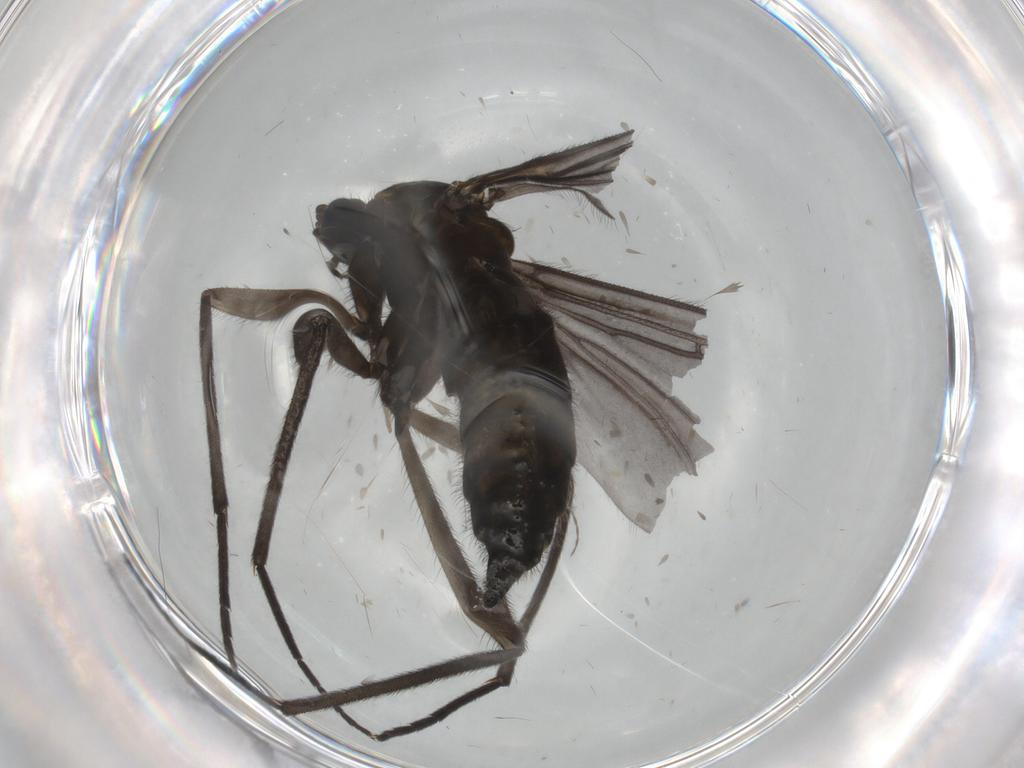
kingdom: Animalia
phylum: Arthropoda
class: Insecta
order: Diptera
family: Sciaridae
